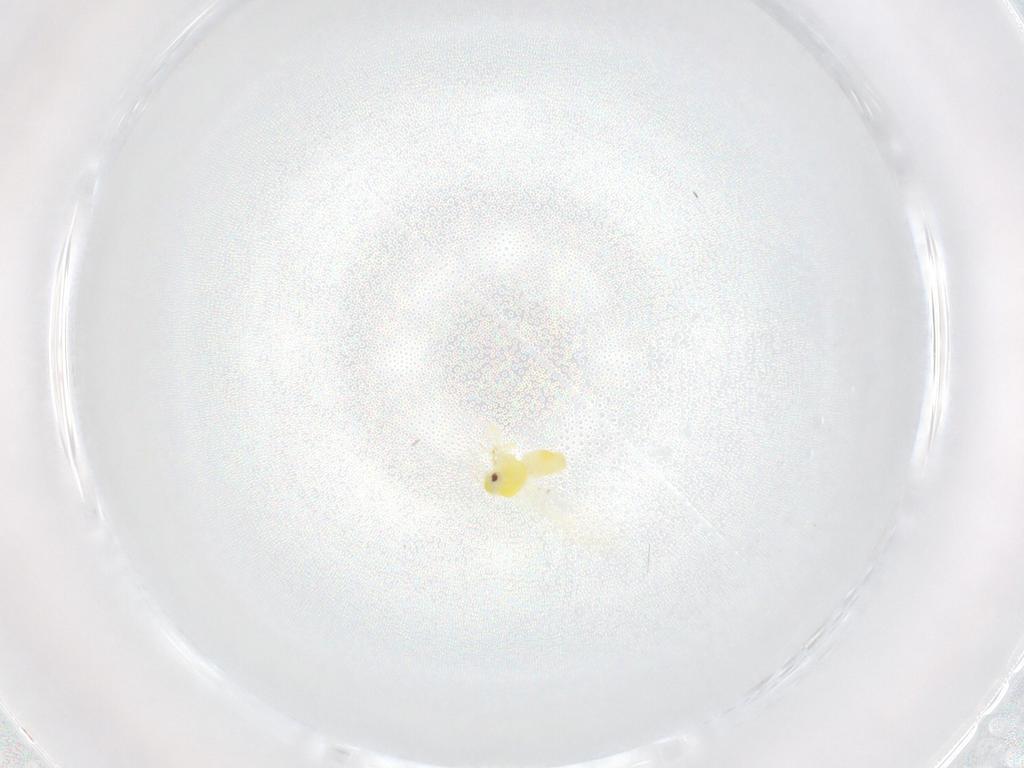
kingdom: Animalia
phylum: Arthropoda
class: Insecta
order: Hemiptera
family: Aleyrodidae
